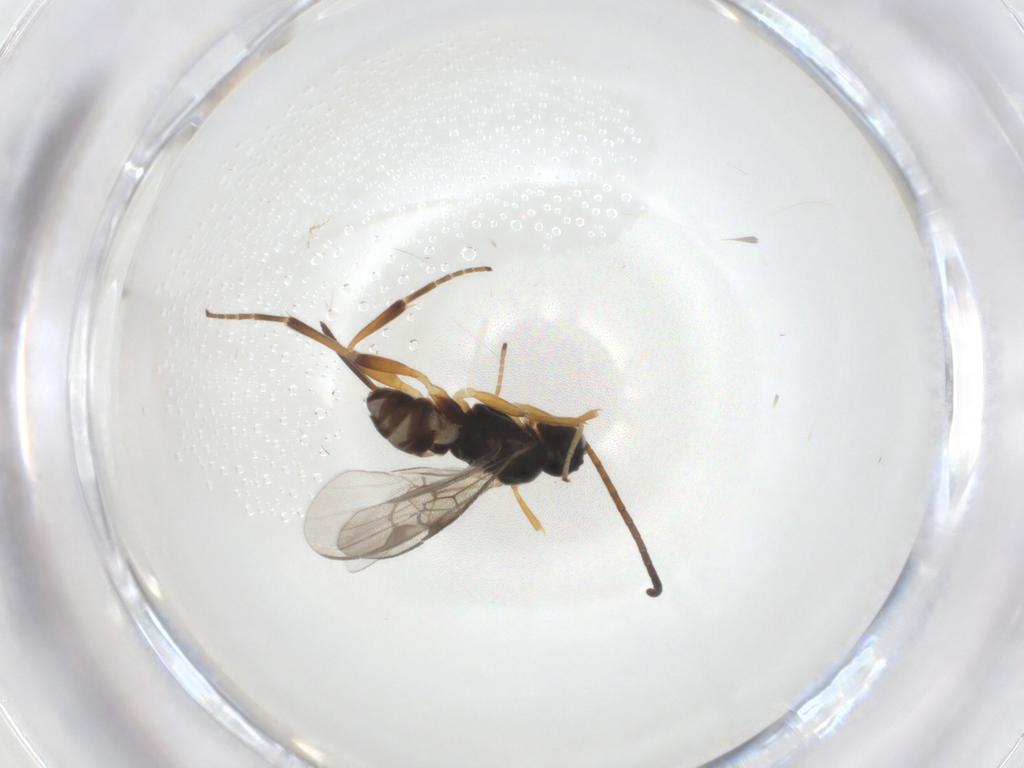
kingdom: Animalia
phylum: Arthropoda
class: Insecta
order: Hymenoptera
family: Braconidae
